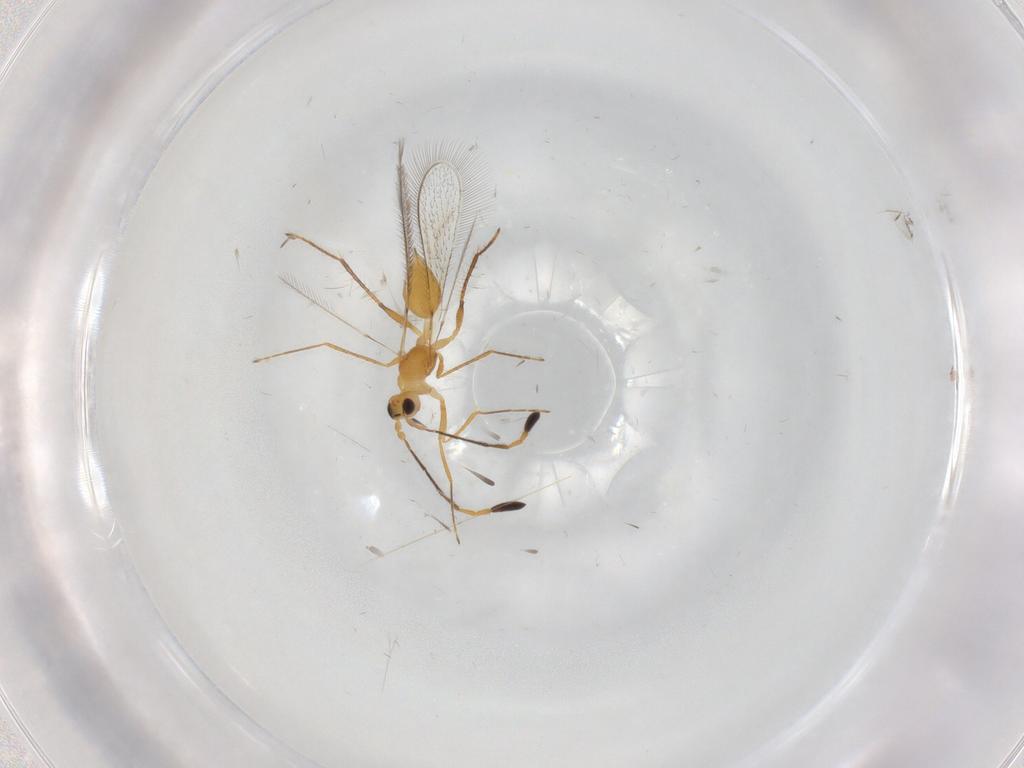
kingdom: Animalia
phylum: Arthropoda
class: Insecta
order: Hymenoptera
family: Mymaridae
